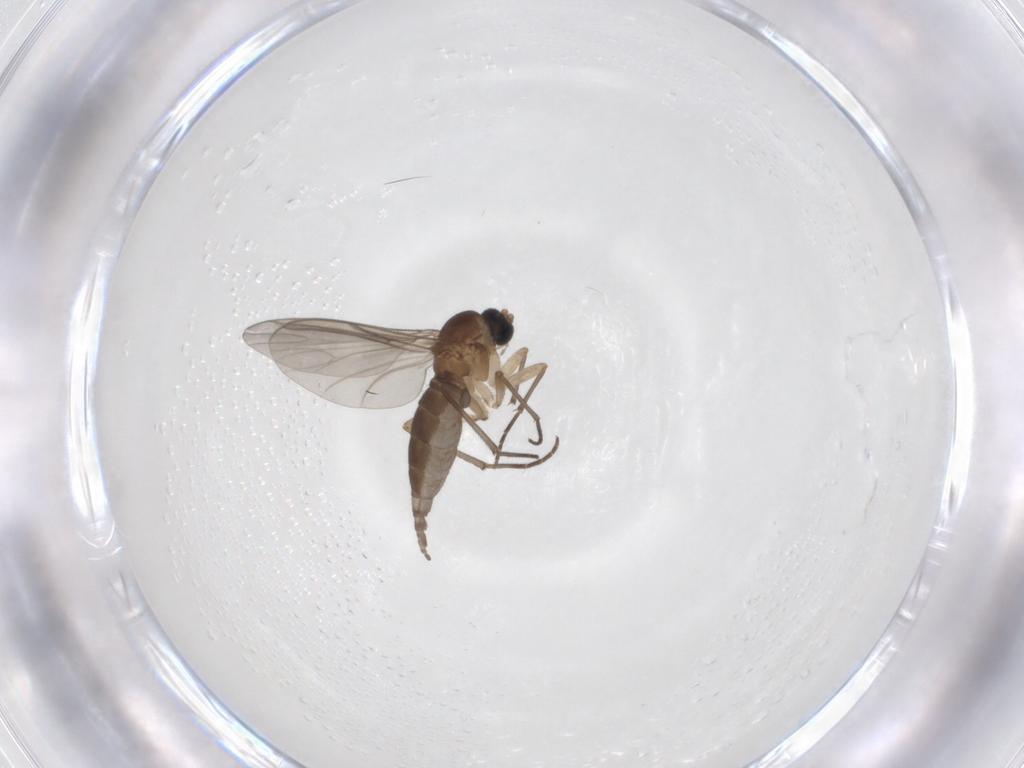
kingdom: Animalia
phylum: Arthropoda
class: Insecta
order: Diptera
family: Sciaridae
